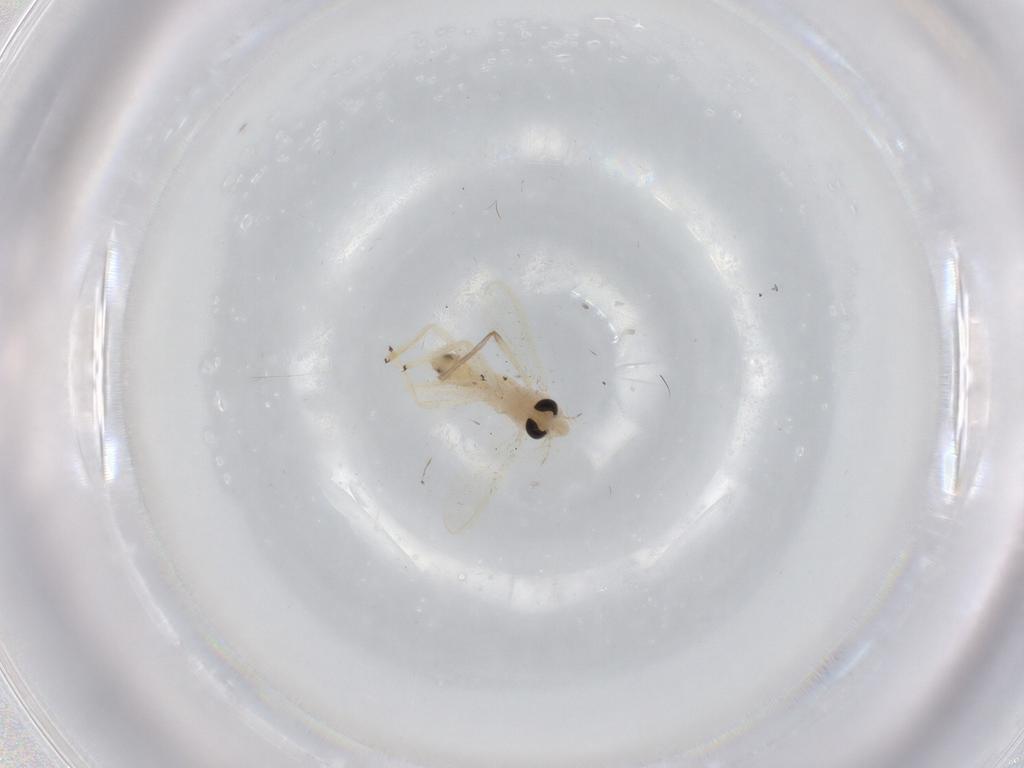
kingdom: Animalia
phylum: Arthropoda
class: Insecta
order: Diptera
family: Chironomidae
